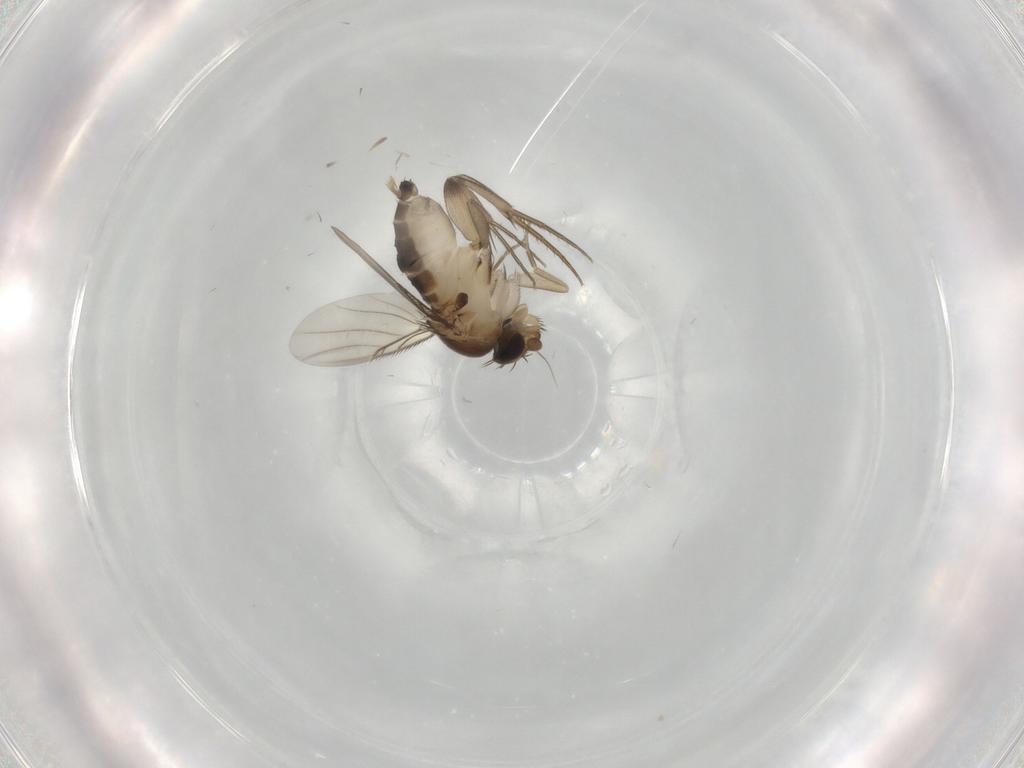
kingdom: Animalia
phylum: Arthropoda
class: Insecta
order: Diptera
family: Phoridae
